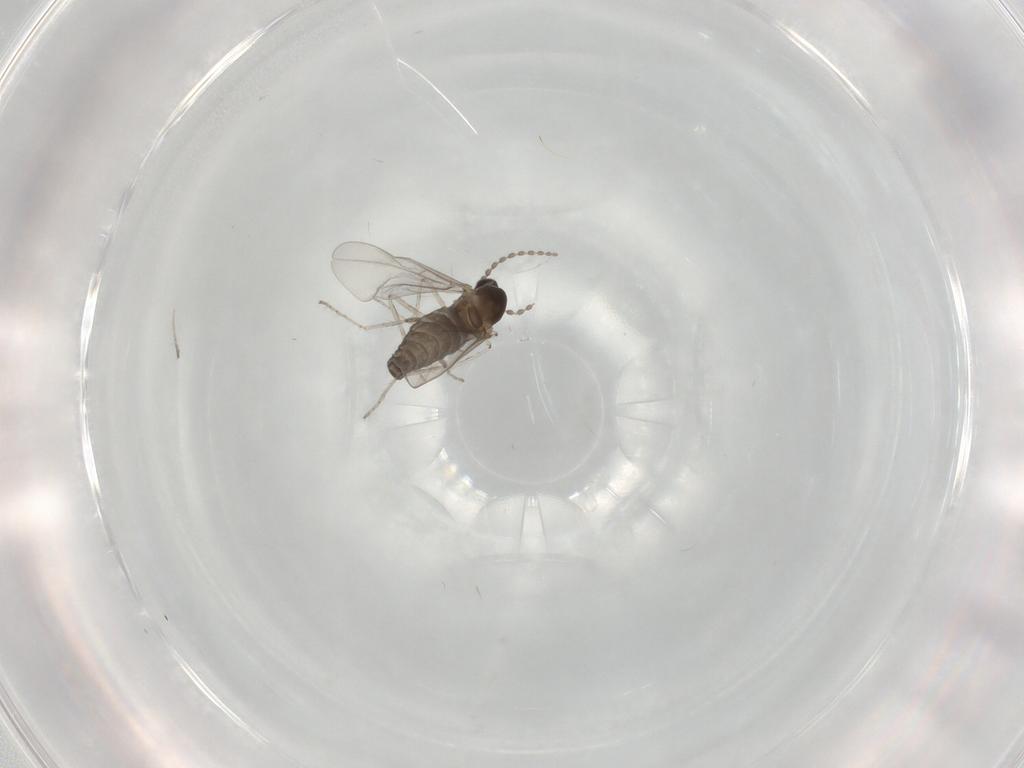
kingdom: Animalia
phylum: Arthropoda
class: Insecta
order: Diptera
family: Cecidomyiidae
